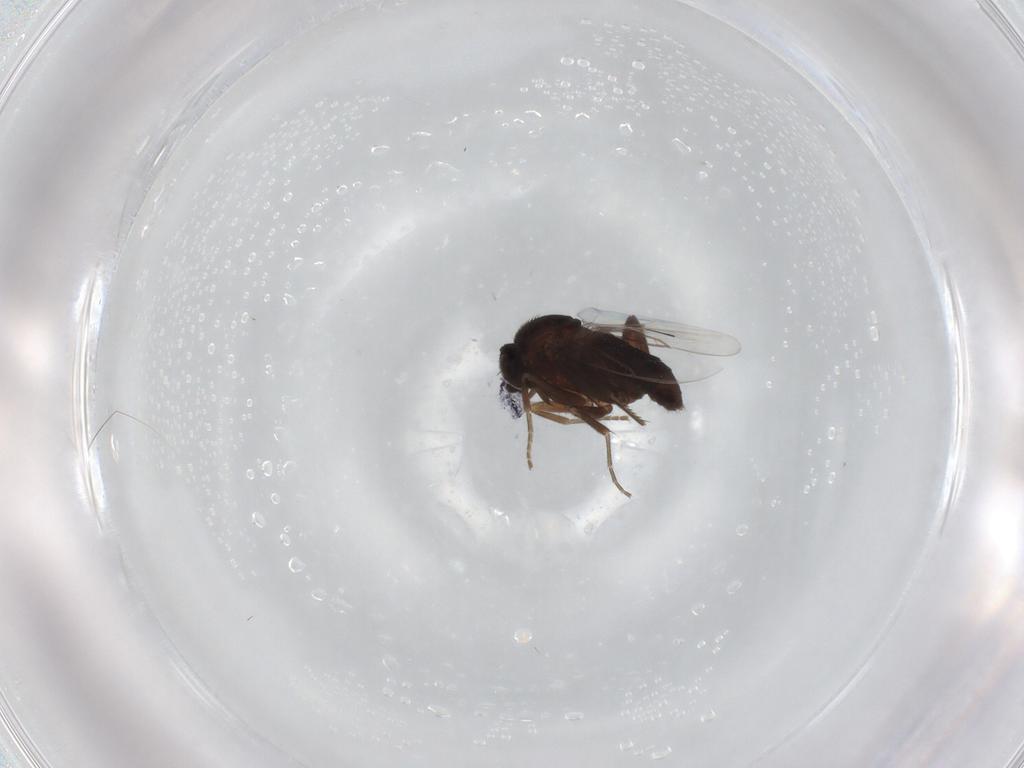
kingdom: Animalia
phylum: Arthropoda
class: Insecta
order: Diptera
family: Phoridae
